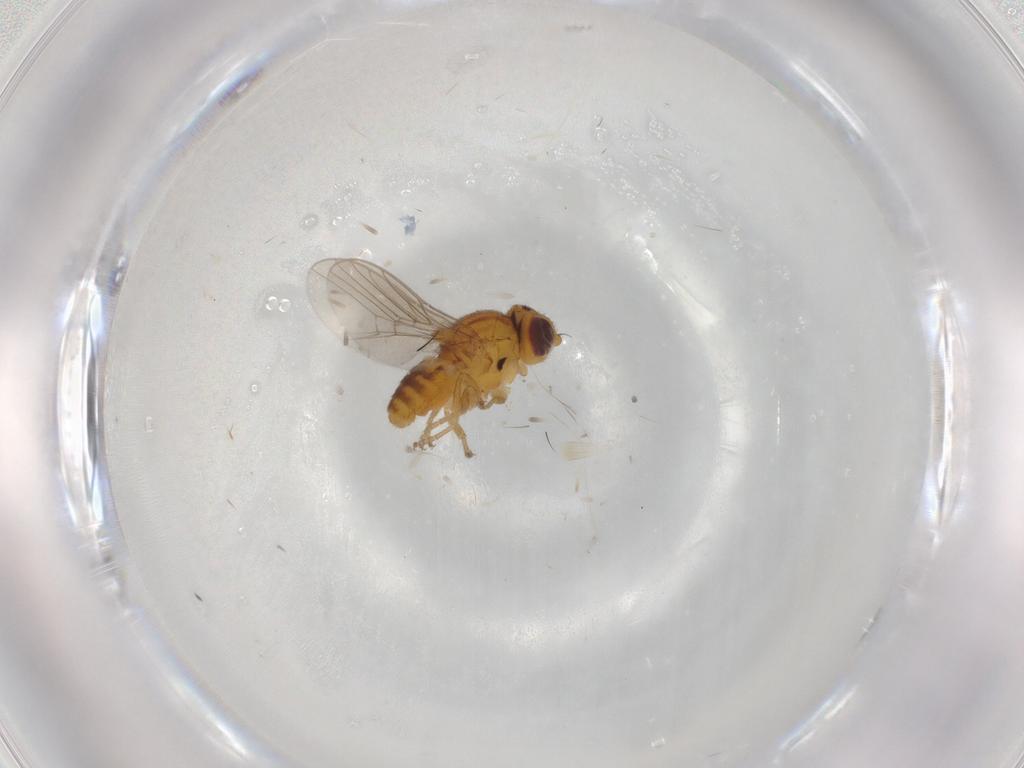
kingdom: Animalia
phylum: Arthropoda
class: Insecta
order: Diptera
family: Chloropidae
